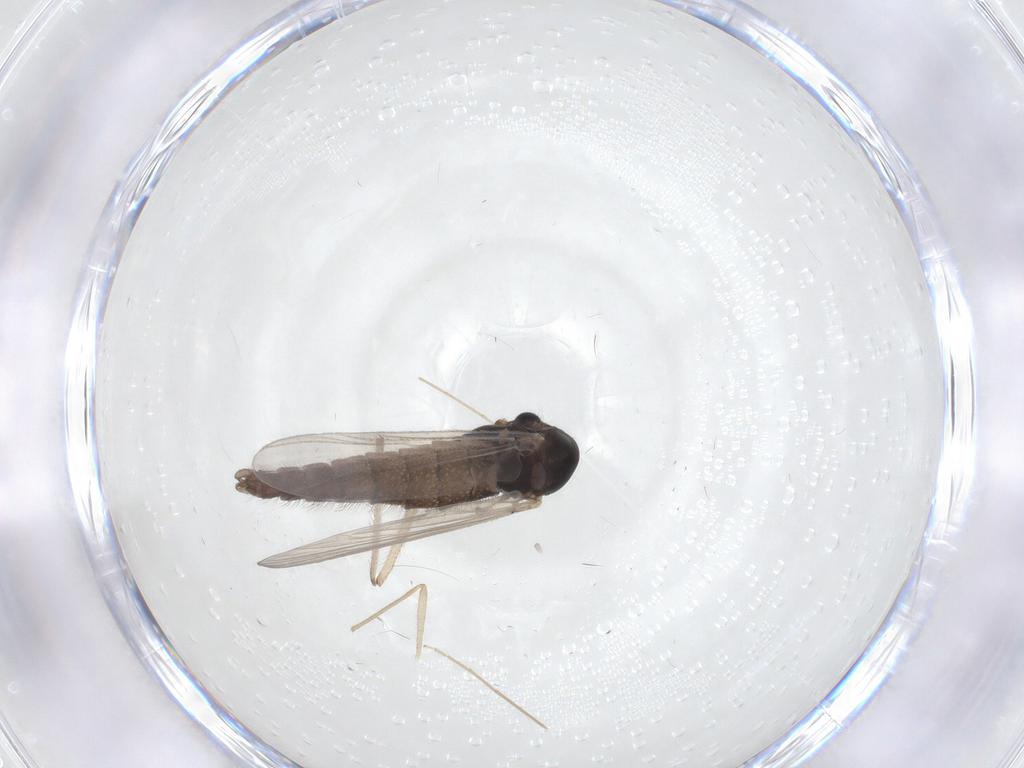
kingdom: Animalia
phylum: Arthropoda
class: Insecta
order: Diptera
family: Chironomidae
